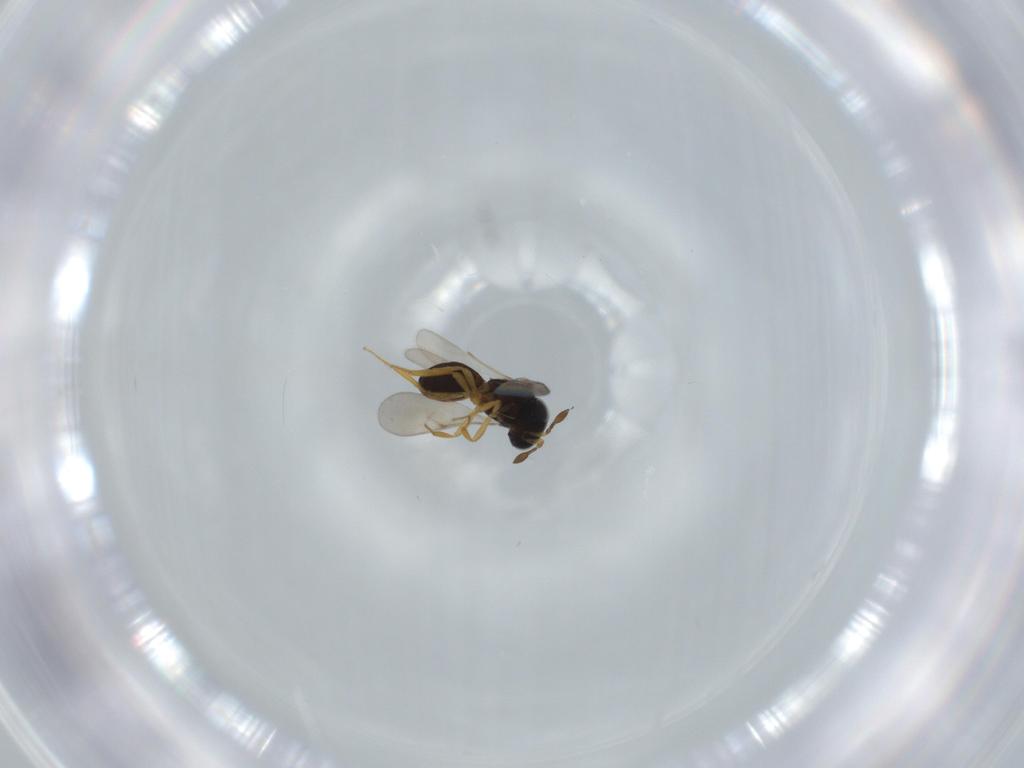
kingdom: Animalia
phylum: Arthropoda
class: Insecta
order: Hymenoptera
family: Scelionidae
